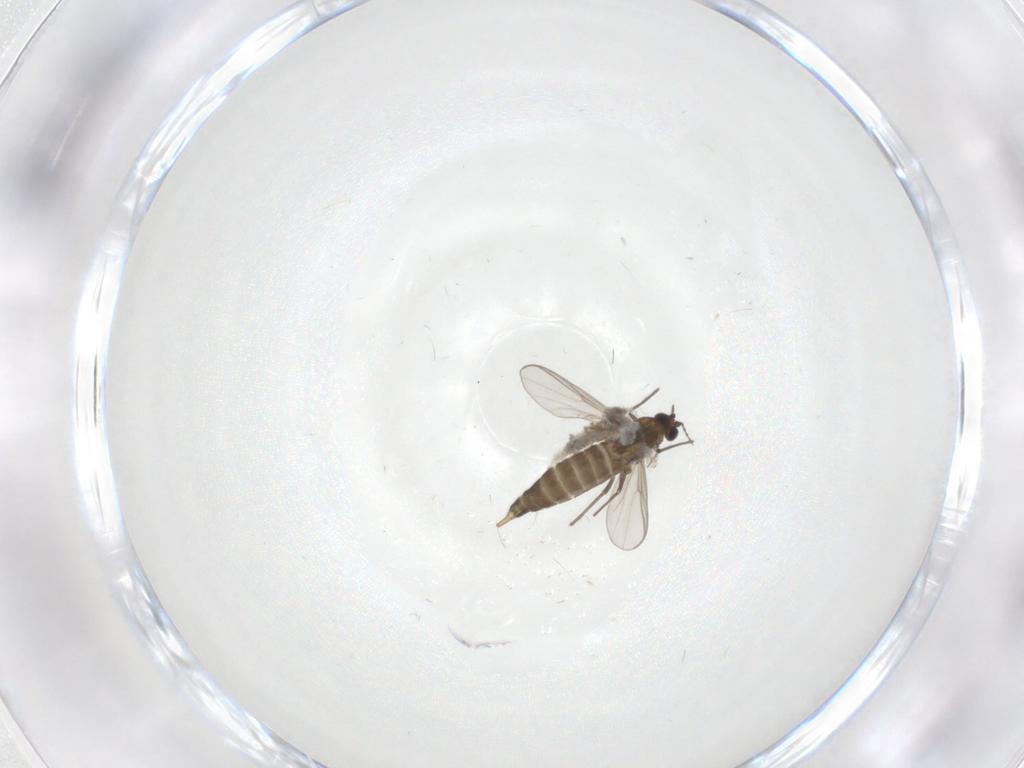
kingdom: Animalia
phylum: Arthropoda
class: Insecta
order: Diptera
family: Chironomidae
